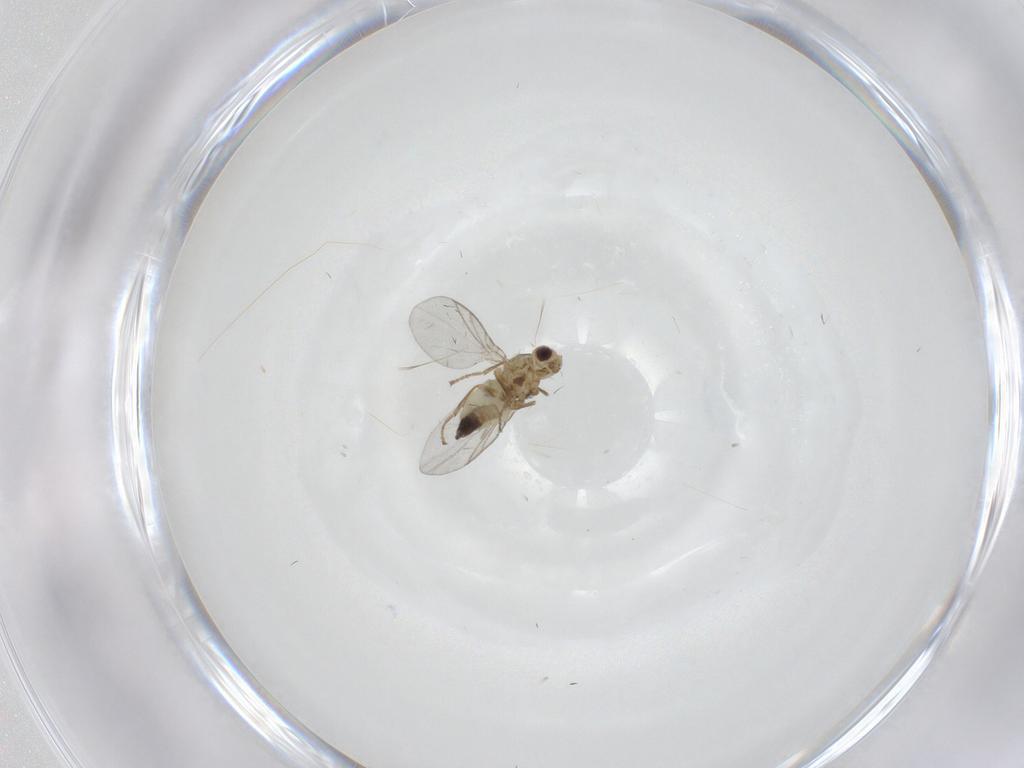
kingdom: Animalia
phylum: Arthropoda
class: Insecta
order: Diptera
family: Agromyzidae
